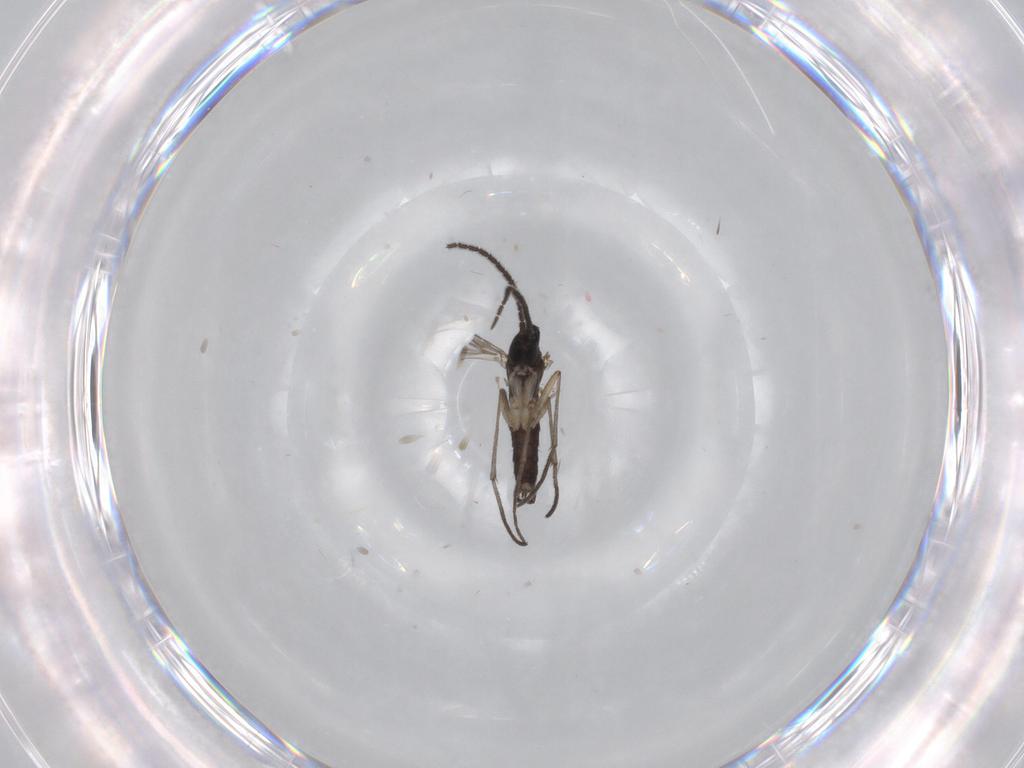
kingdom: Animalia
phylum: Arthropoda
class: Insecta
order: Diptera
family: Sciaridae
